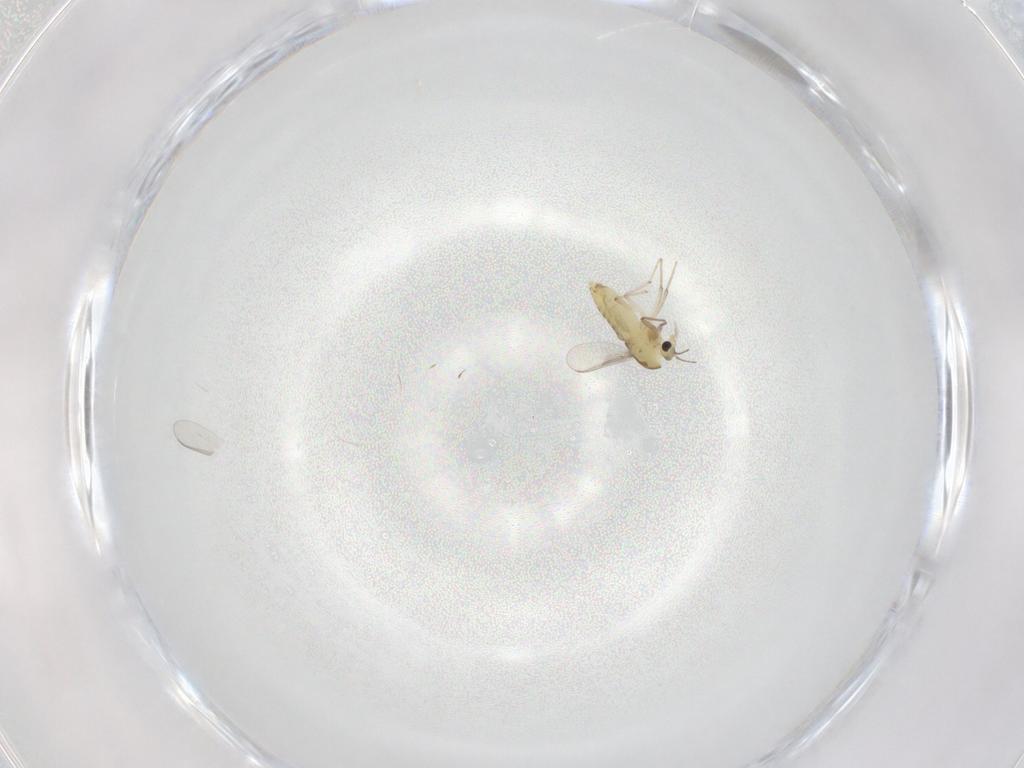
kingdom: Animalia
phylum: Arthropoda
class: Insecta
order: Diptera
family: Chironomidae
